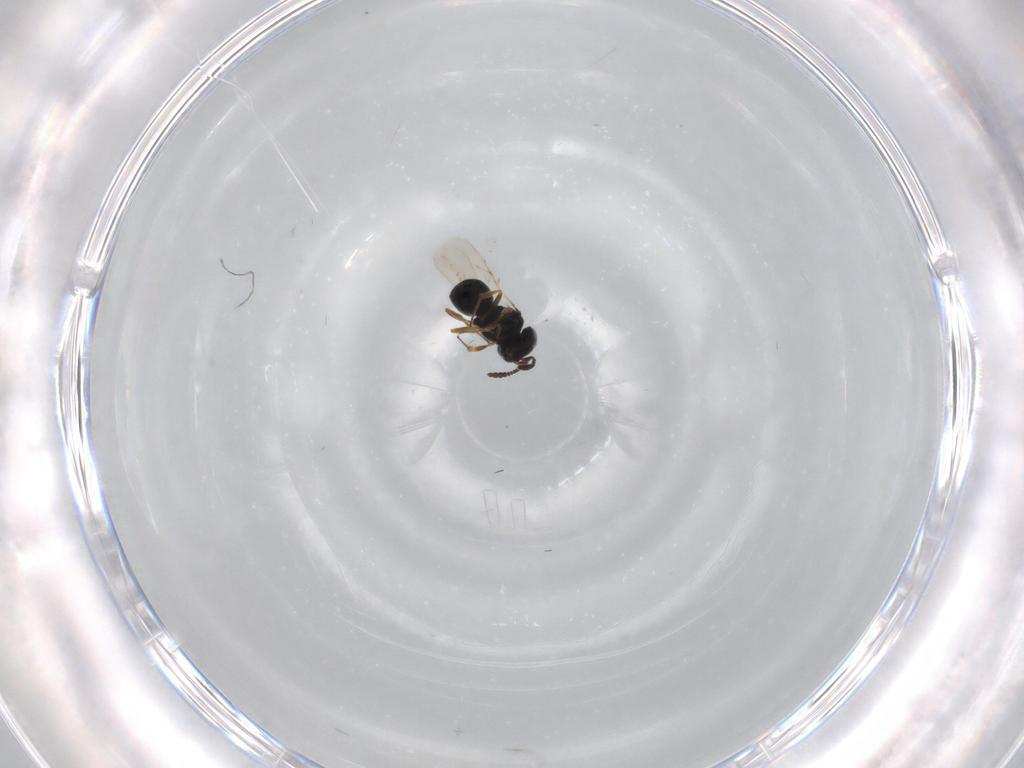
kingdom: Animalia
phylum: Arthropoda
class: Insecta
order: Hymenoptera
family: Scelionidae
